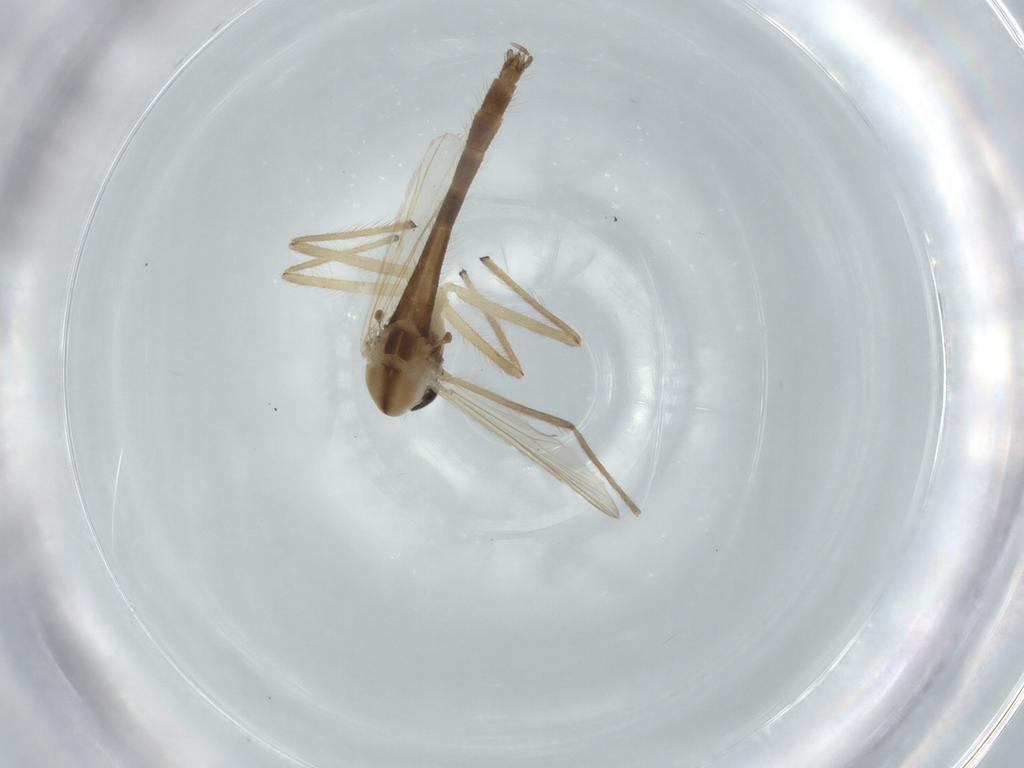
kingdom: Animalia
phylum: Arthropoda
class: Insecta
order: Diptera
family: Chironomidae
